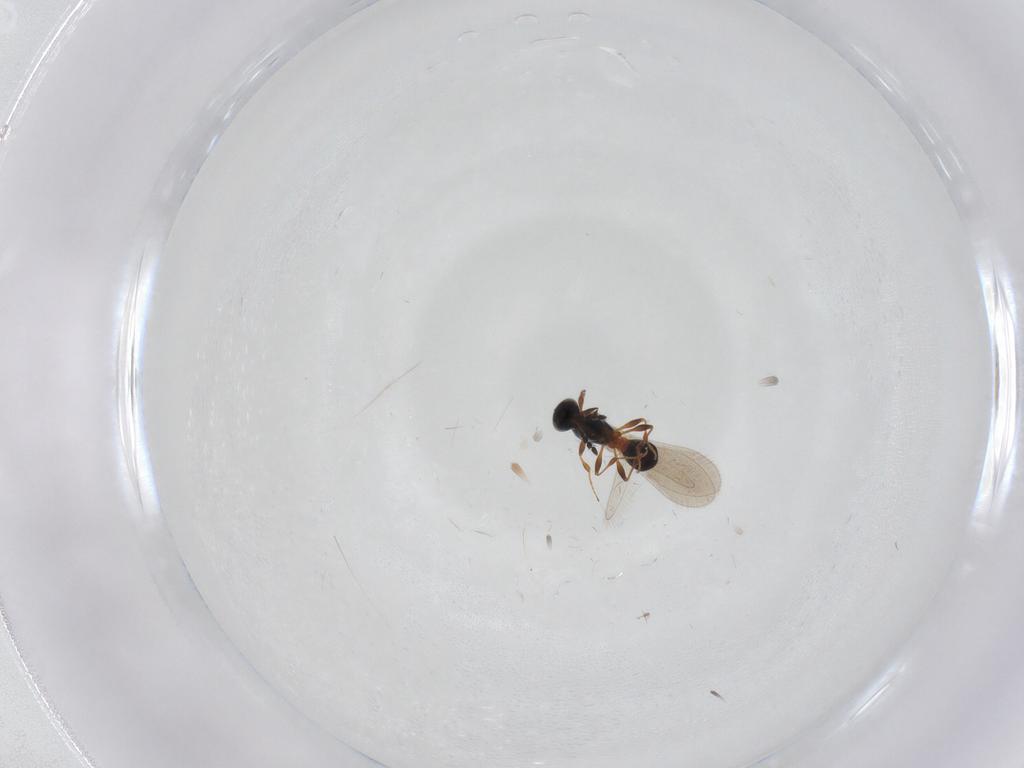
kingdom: Animalia
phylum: Arthropoda
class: Insecta
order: Hymenoptera
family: Platygastridae
